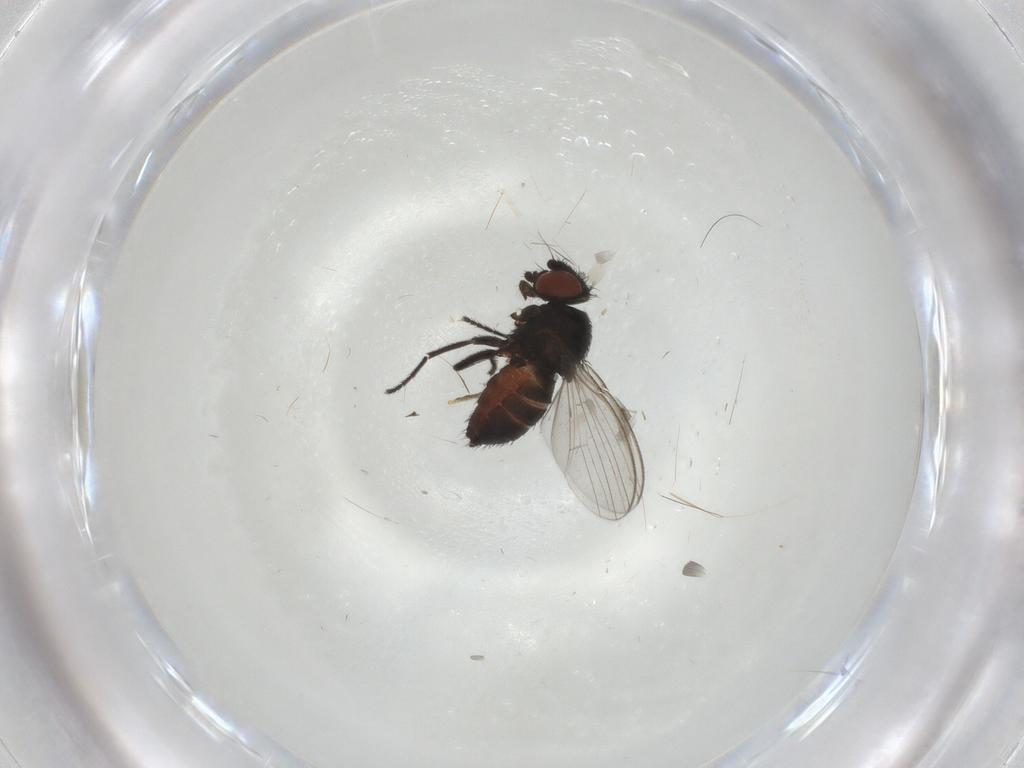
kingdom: Animalia
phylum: Arthropoda
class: Insecta
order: Diptera
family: Milichiidae
